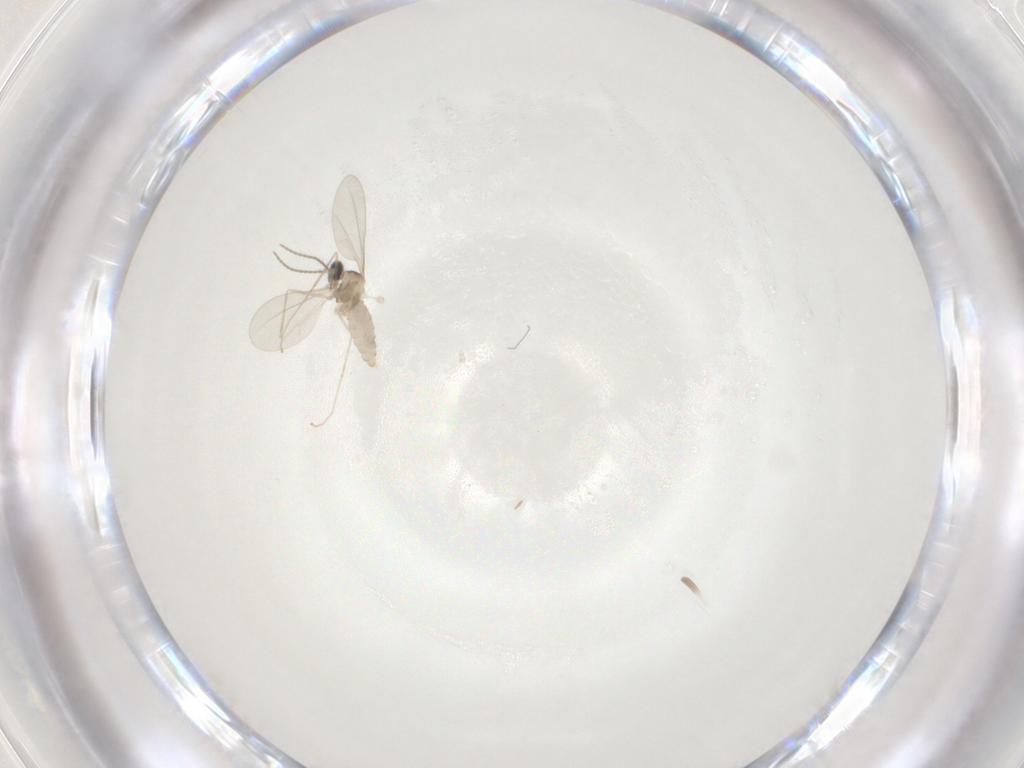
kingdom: Animalia
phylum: Arthropoda
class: Insecta
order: Diptera
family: Cecidomyiidae
